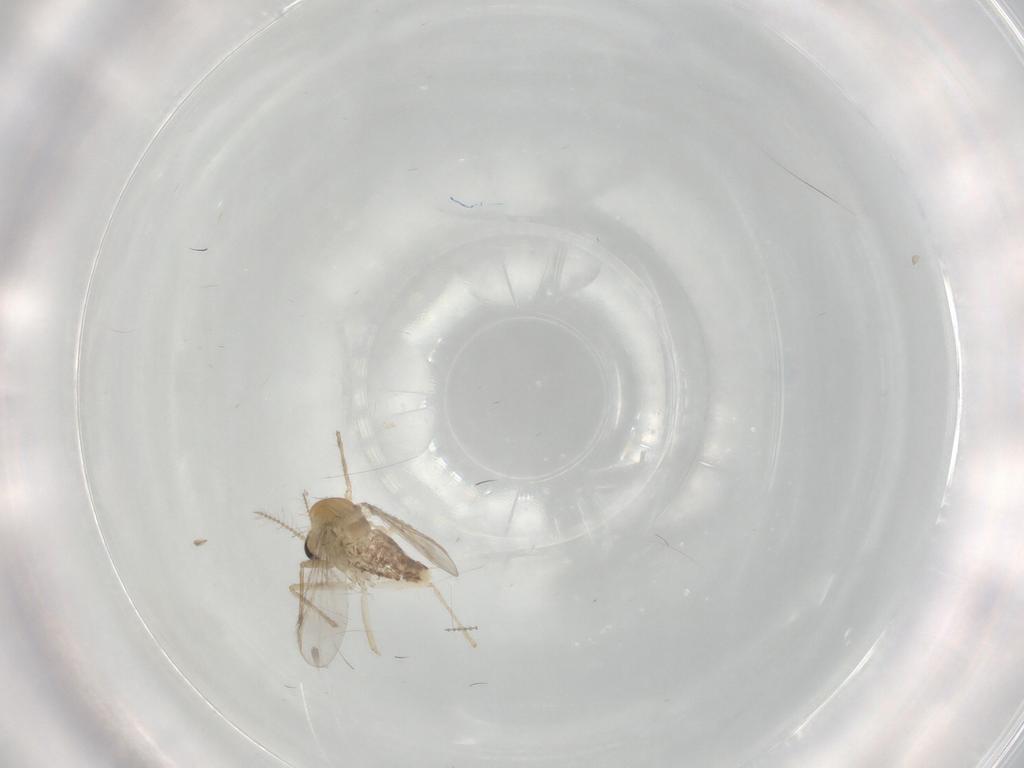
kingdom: Animalia
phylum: Arthropoda
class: Insecta
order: Diptera
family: Chironomidae
